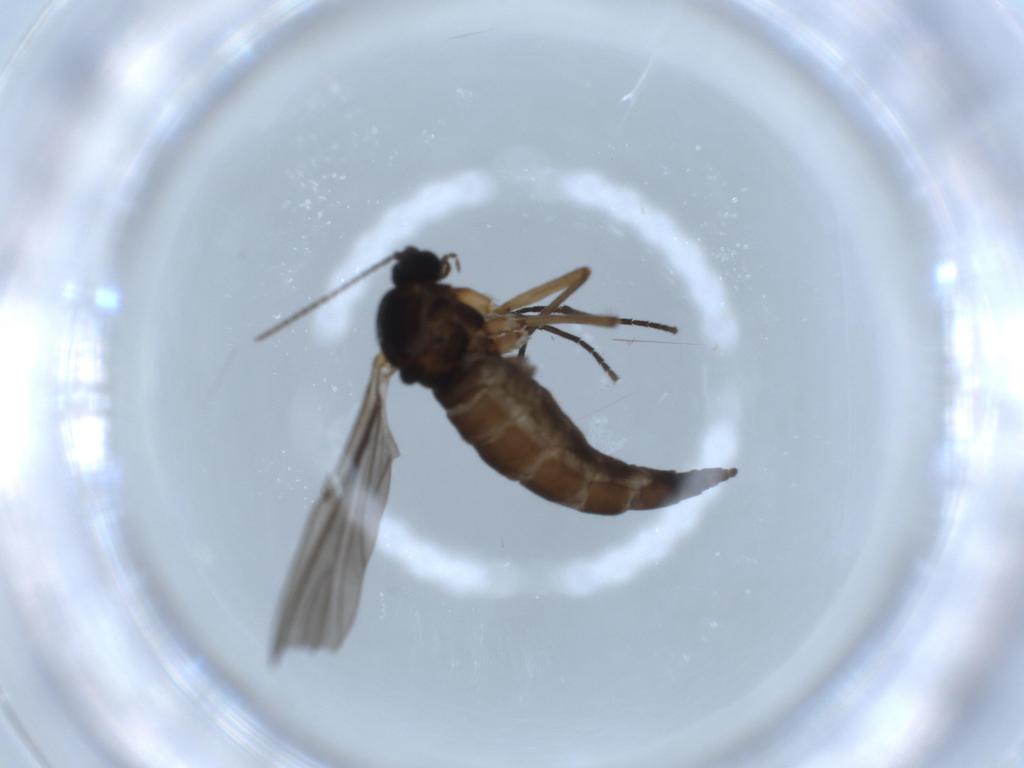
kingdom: Animalia
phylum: Arthropoda
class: Insecta
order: Diptera
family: Sciaridae
